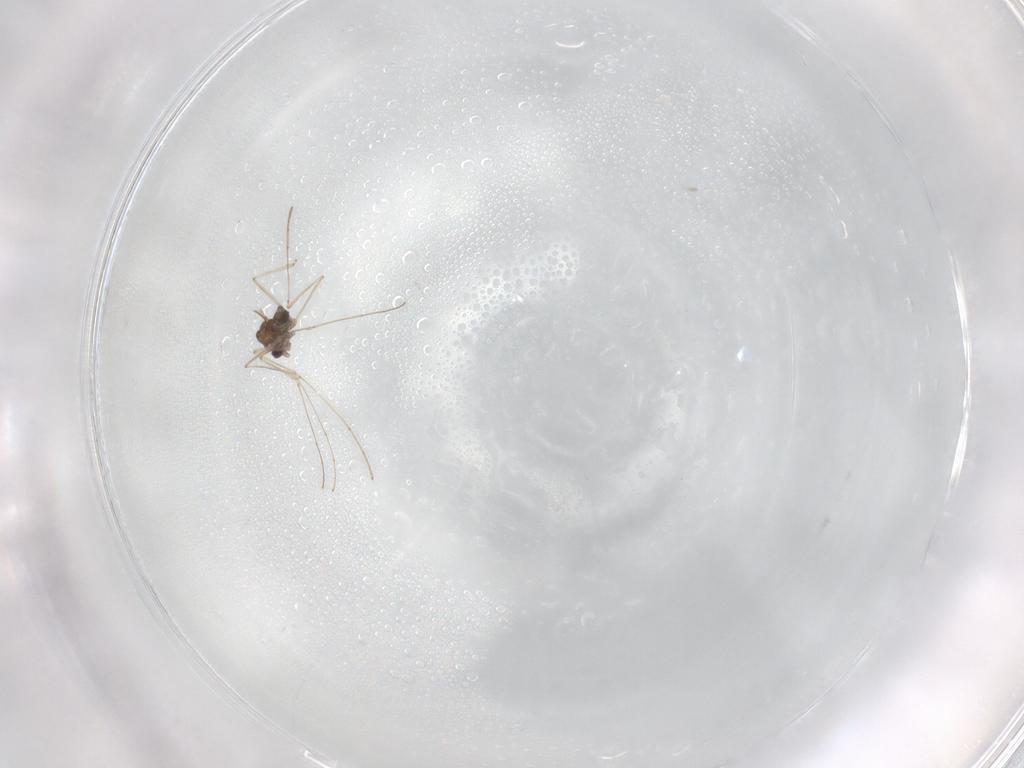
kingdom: Animalia
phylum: Arthropoda
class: Insecta
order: Diptera
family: Cecidomyiidae
